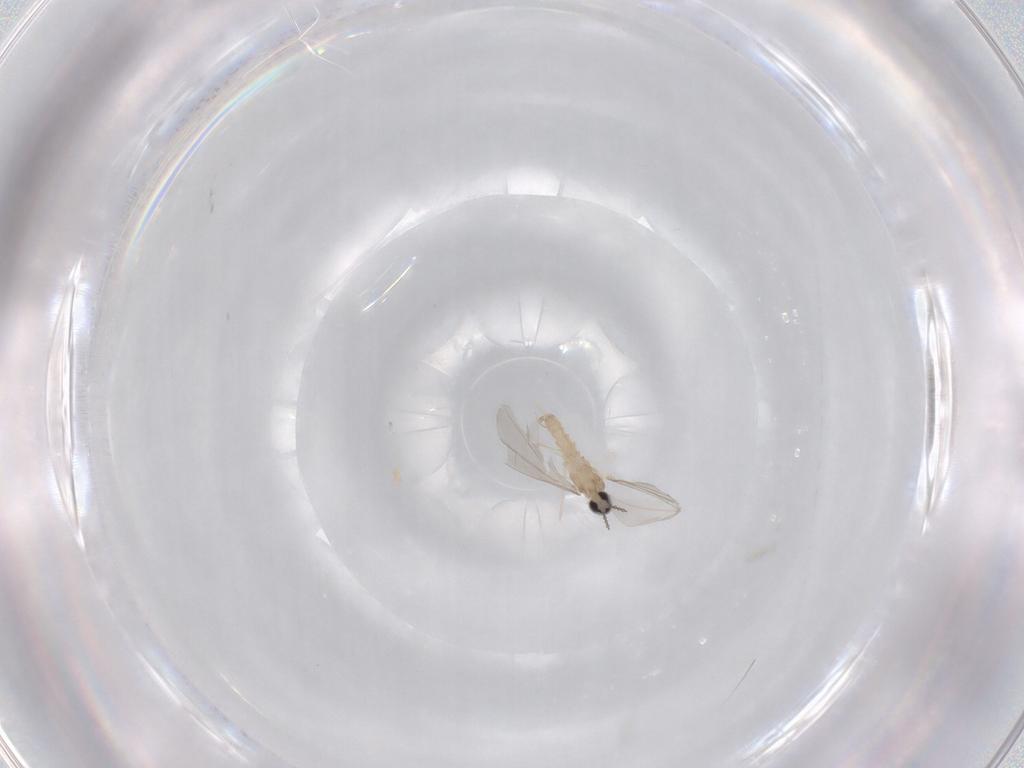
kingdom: Animalia
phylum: Arthropoda
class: Insecta
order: Diptera
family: Cecidomyiidae
